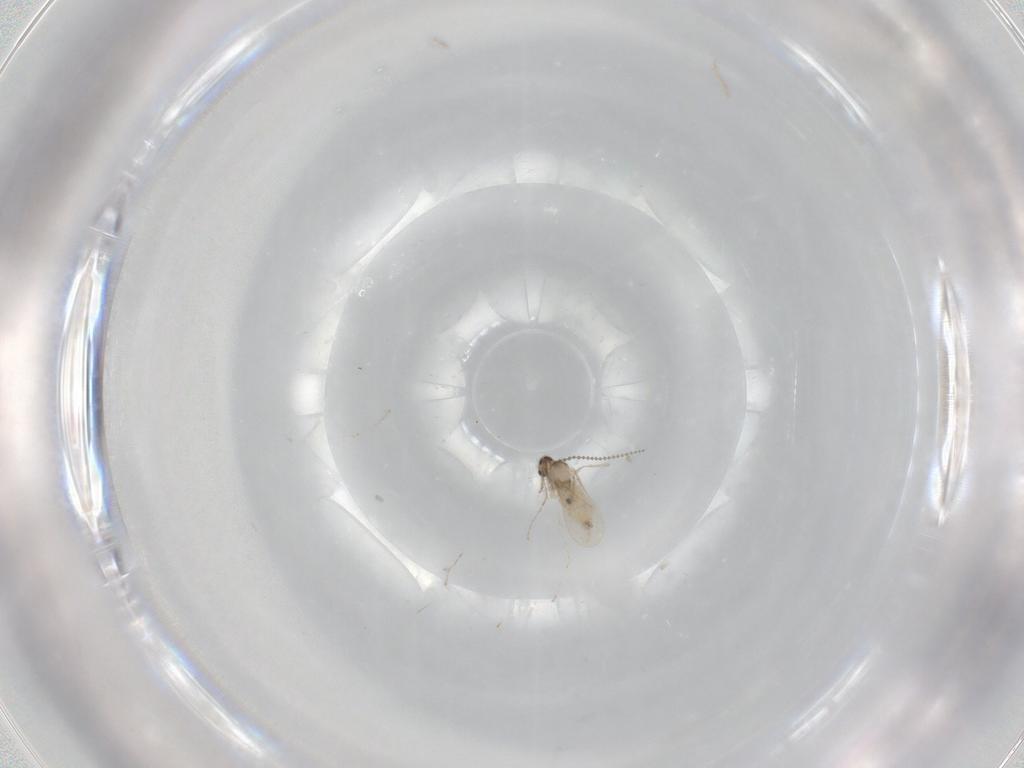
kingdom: Animalia
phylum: Arthropoda
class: Insecta
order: Diptera
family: Cecidomyiidae
